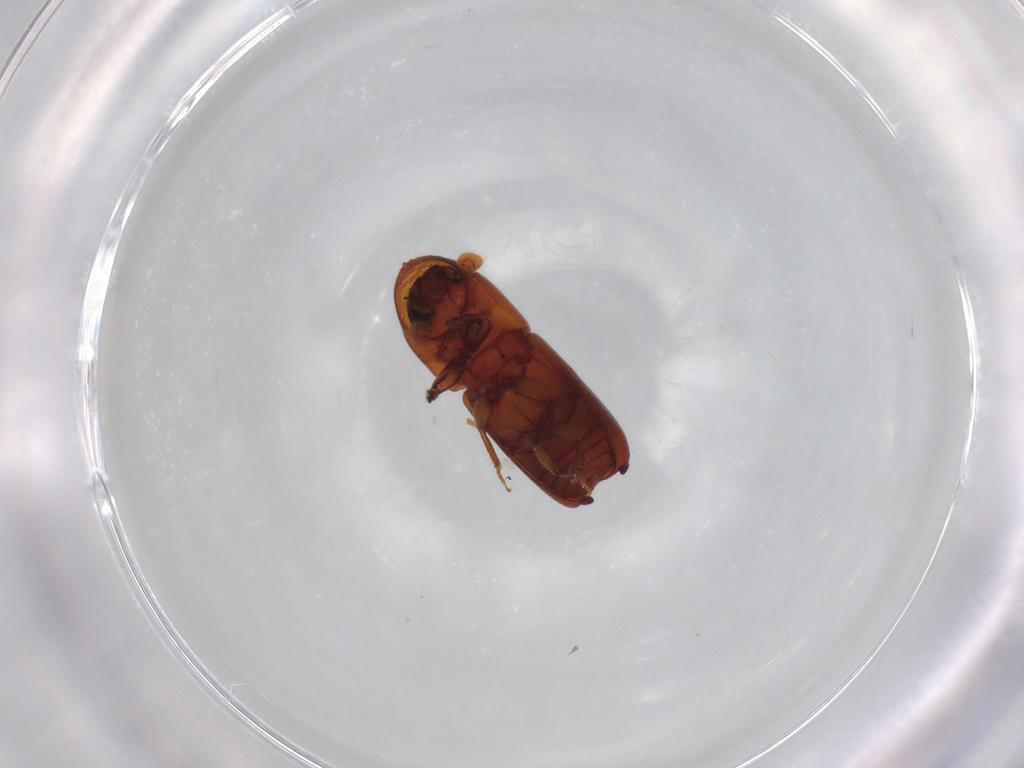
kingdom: Animalia
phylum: Arthropoda
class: Insecta
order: Coleoptera
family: Curculionidae
